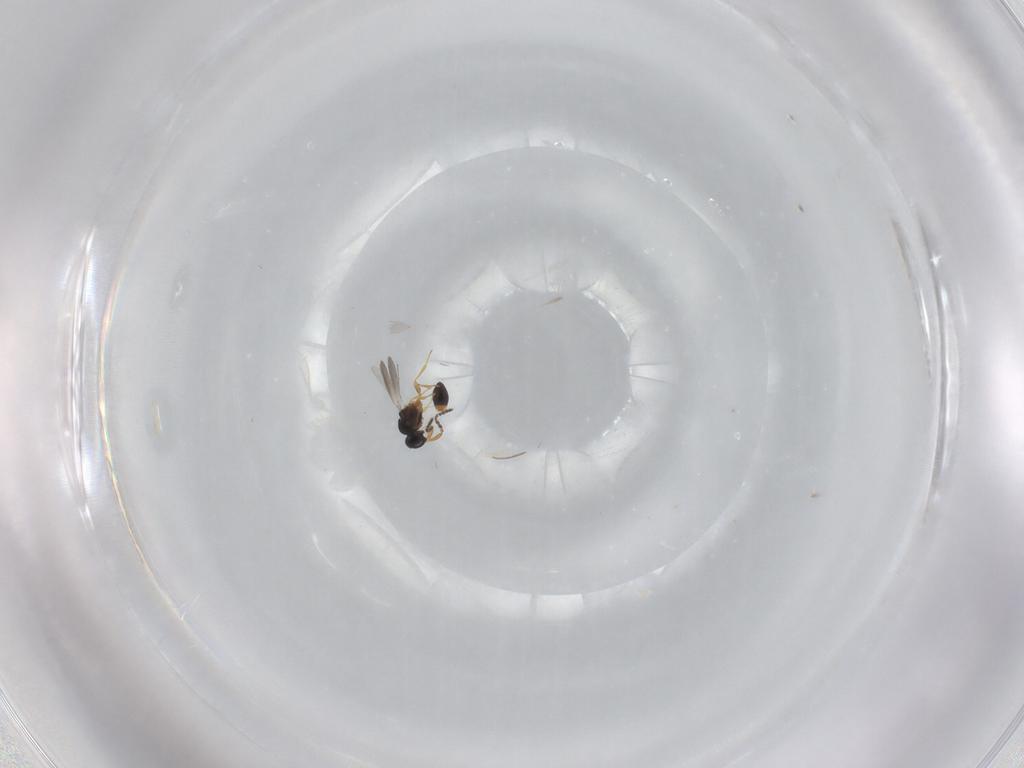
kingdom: Animalia
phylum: Arthropoda
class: Insecta
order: Hymenoptera
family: Platygastridae
